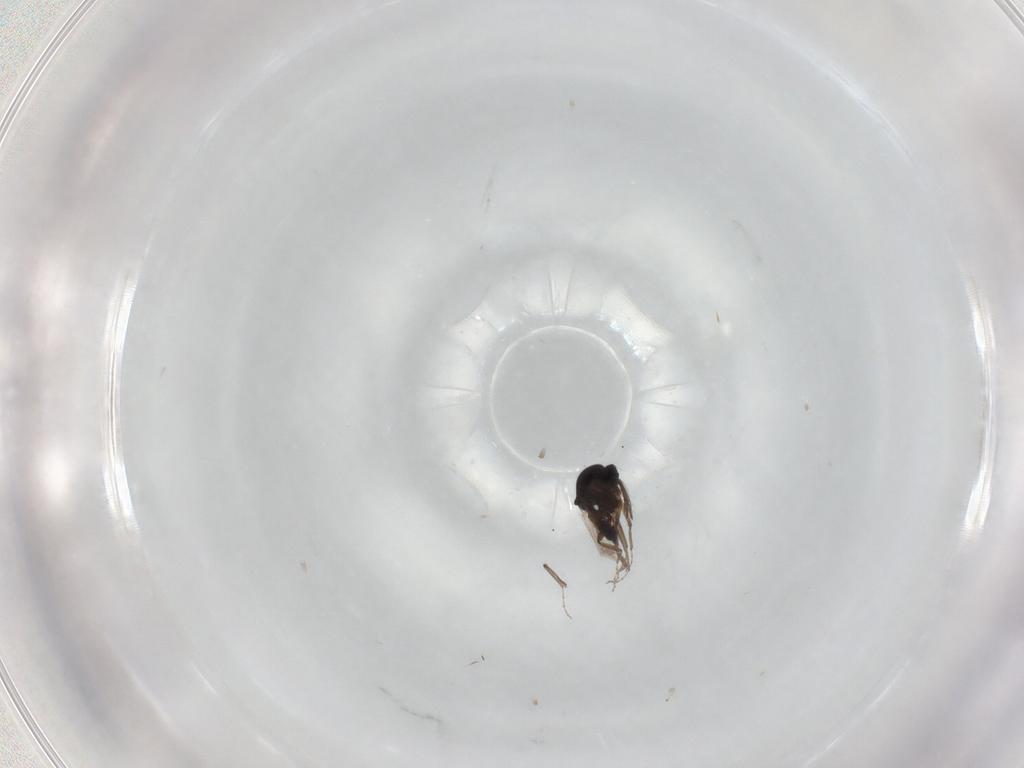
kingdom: Animalia
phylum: Arthropoda
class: Insecta
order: Diptera
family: Ceratopogonidae
